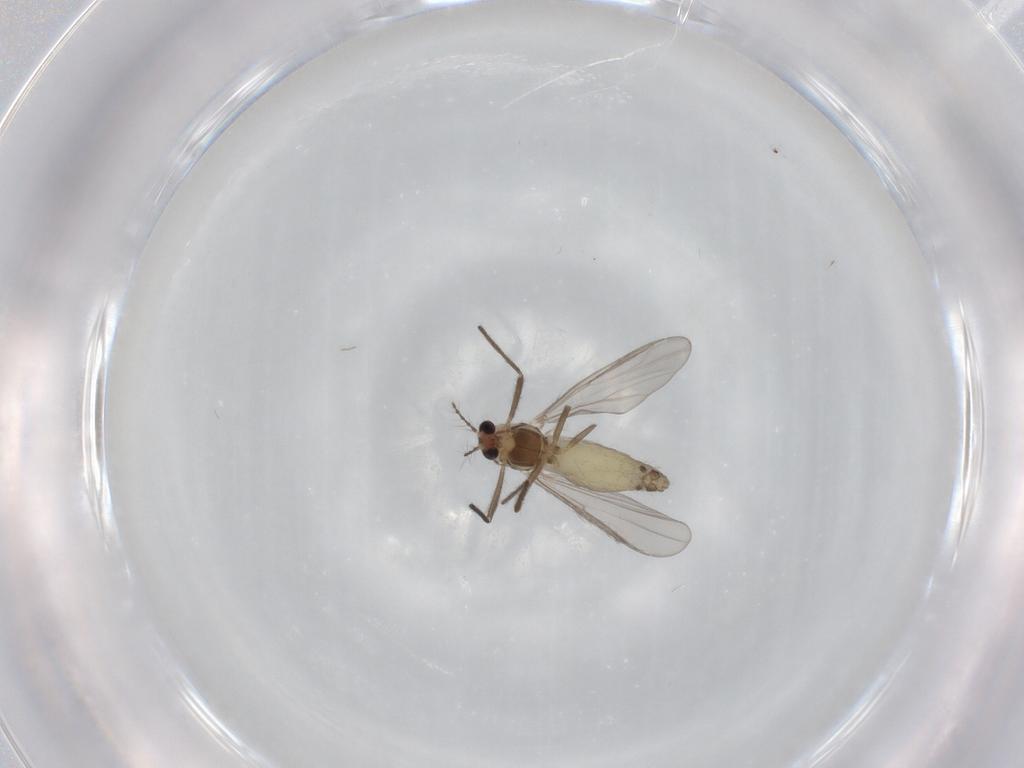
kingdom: Animalia
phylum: Arthropoda
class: Insecta
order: Diptera
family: Chironomidae
